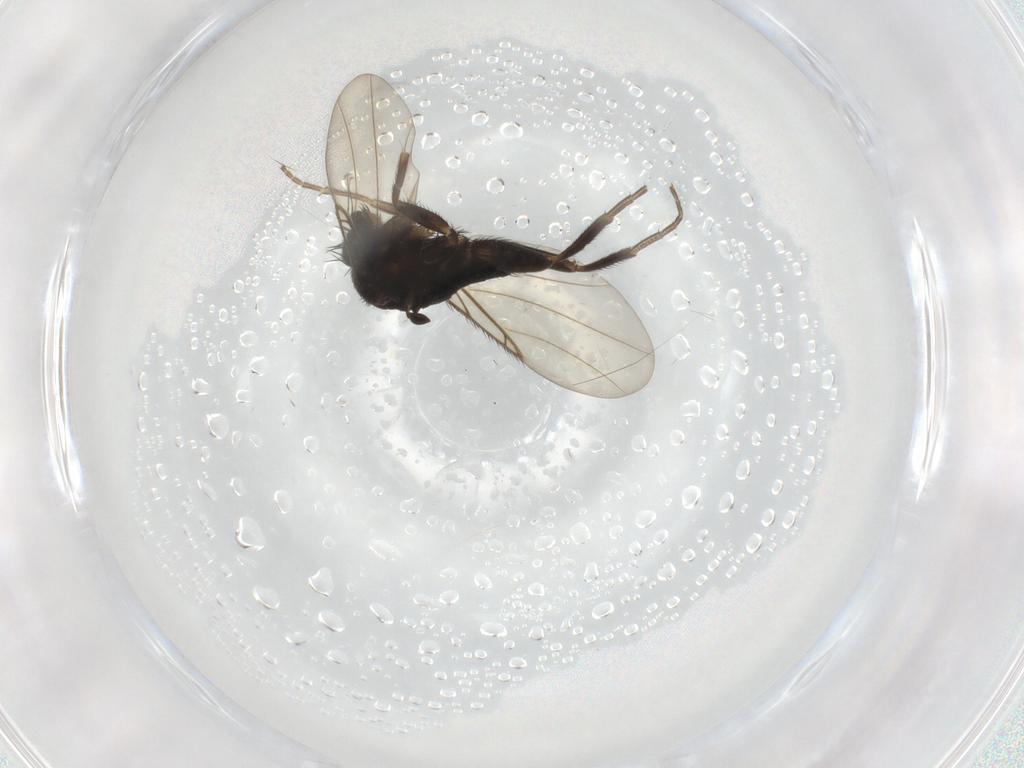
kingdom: Animalia
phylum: Arthropoda
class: Insecta
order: Diptera
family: Phoridae
